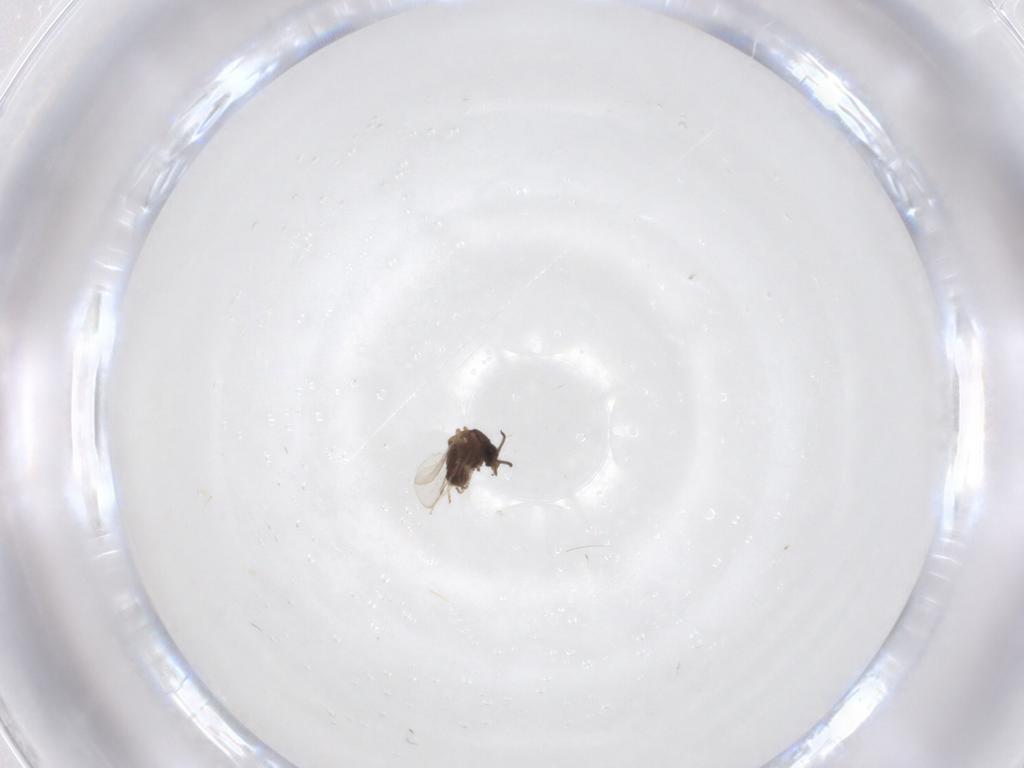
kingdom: Animalia
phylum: Arthropoda
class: Insecta
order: Diptera
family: Ceratopogonidae
